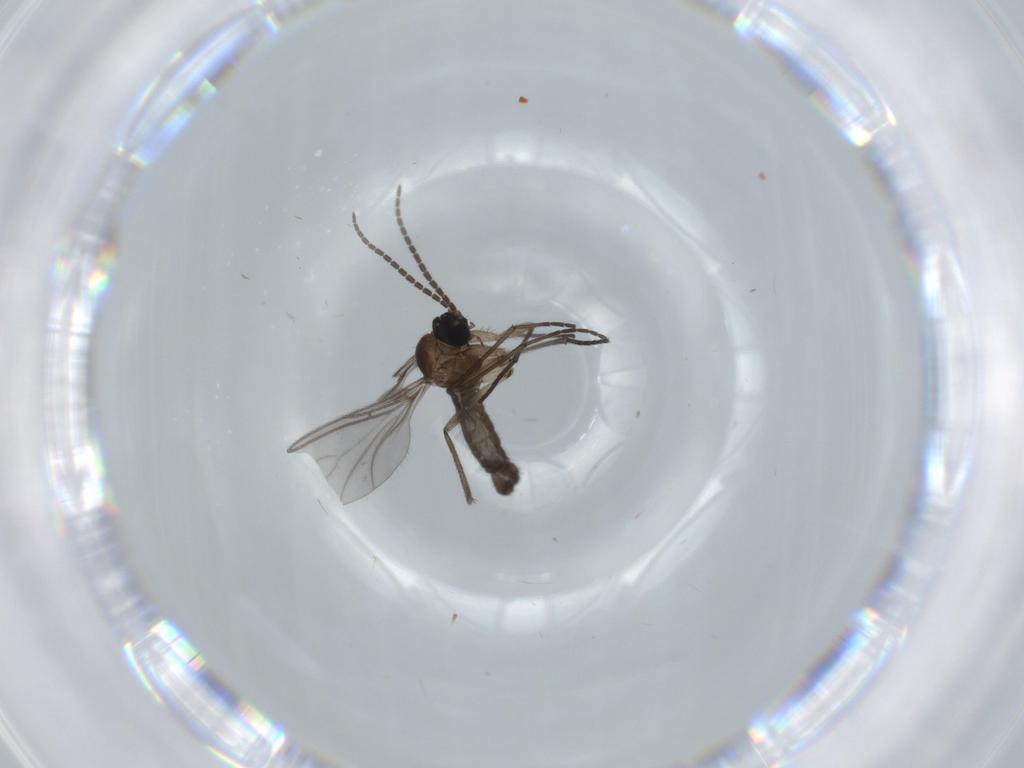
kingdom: Animalia
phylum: Arthropoda
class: Insecta
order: Diptera
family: Sciaridae
